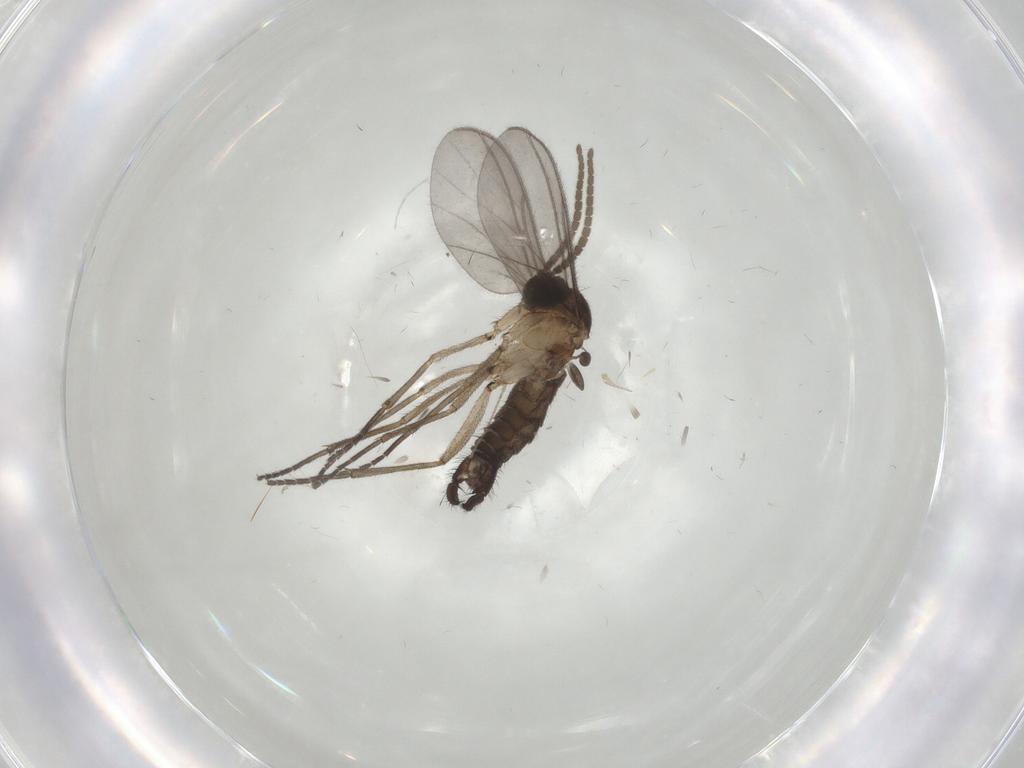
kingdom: Animalia
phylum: Arthropoda
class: Insecta
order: Diptera
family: Sciaridae
